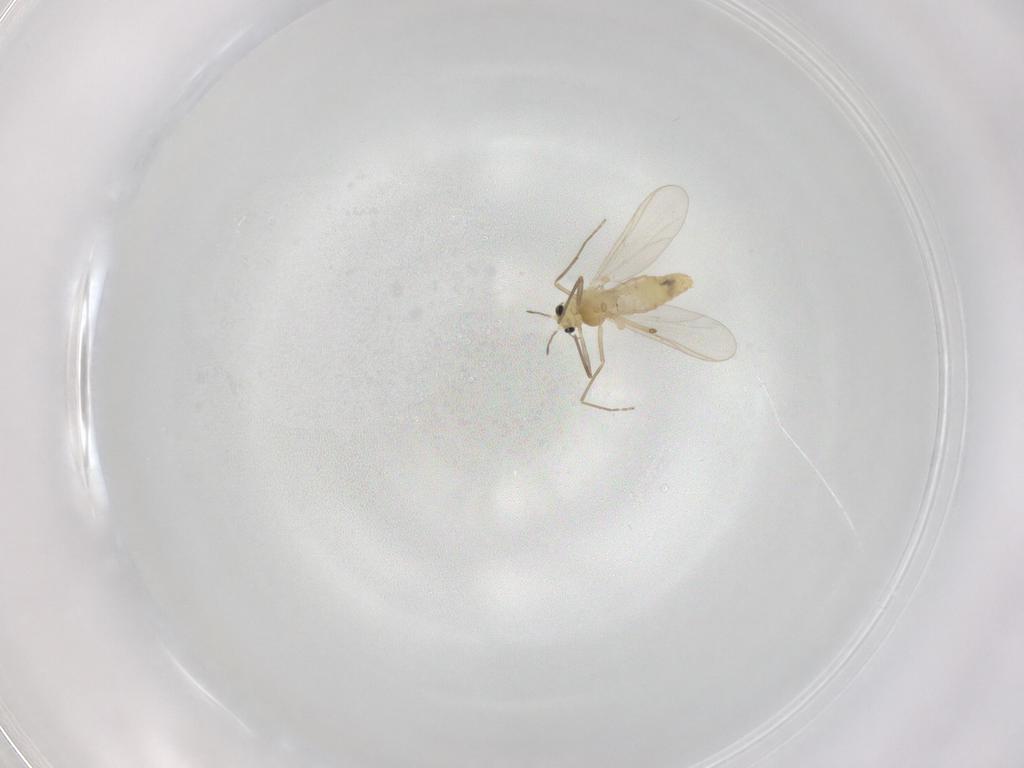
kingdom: Animalia
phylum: Arthropoda
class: Insecta
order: Diptera
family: Chironomidae
